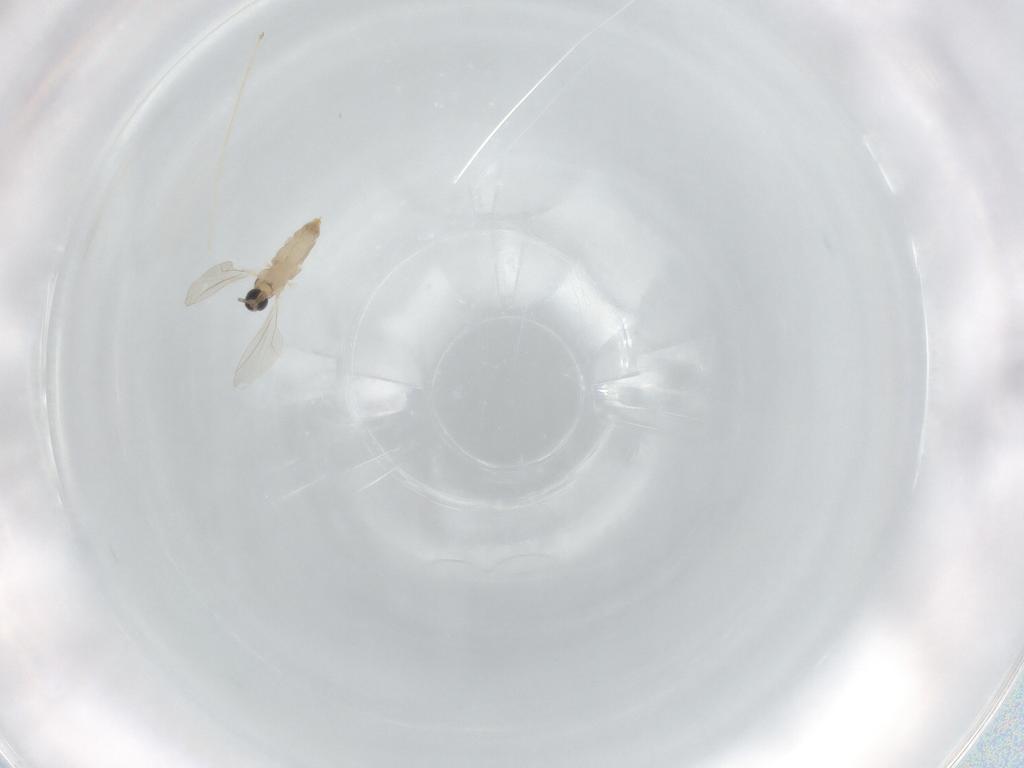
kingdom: Animalia
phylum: Arthropoda
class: Insecta
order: Diptera
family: Cecidomyiidae
